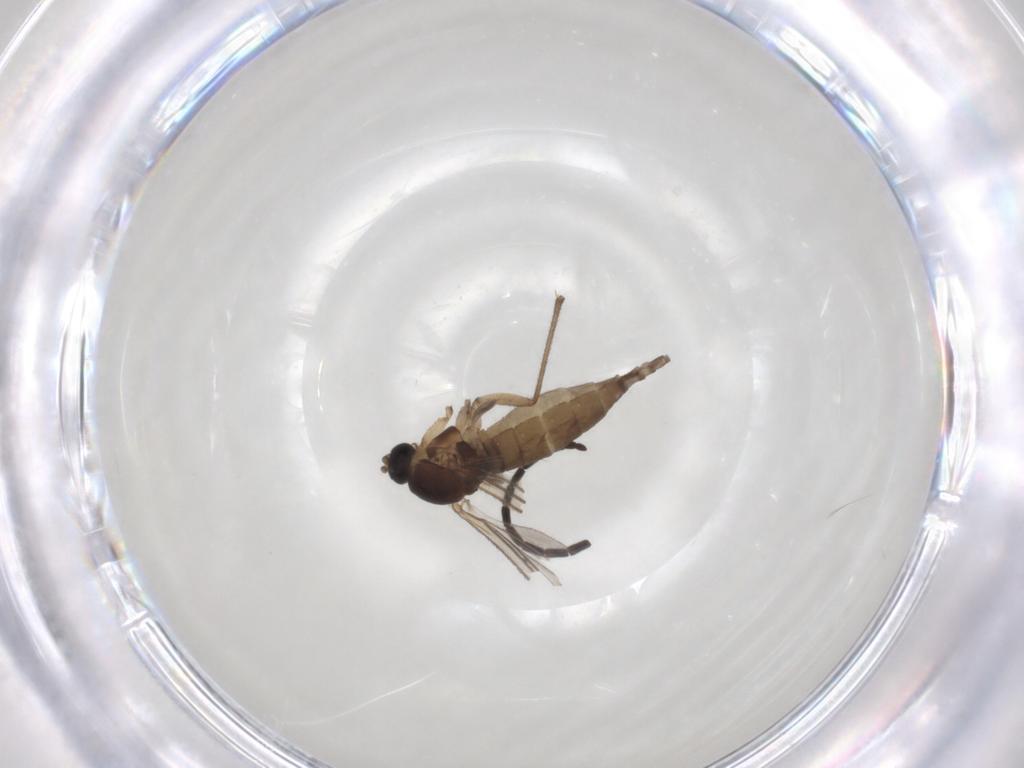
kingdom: Animalia
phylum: Arthropoda
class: Insecta
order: Diptera
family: Sciaridae
